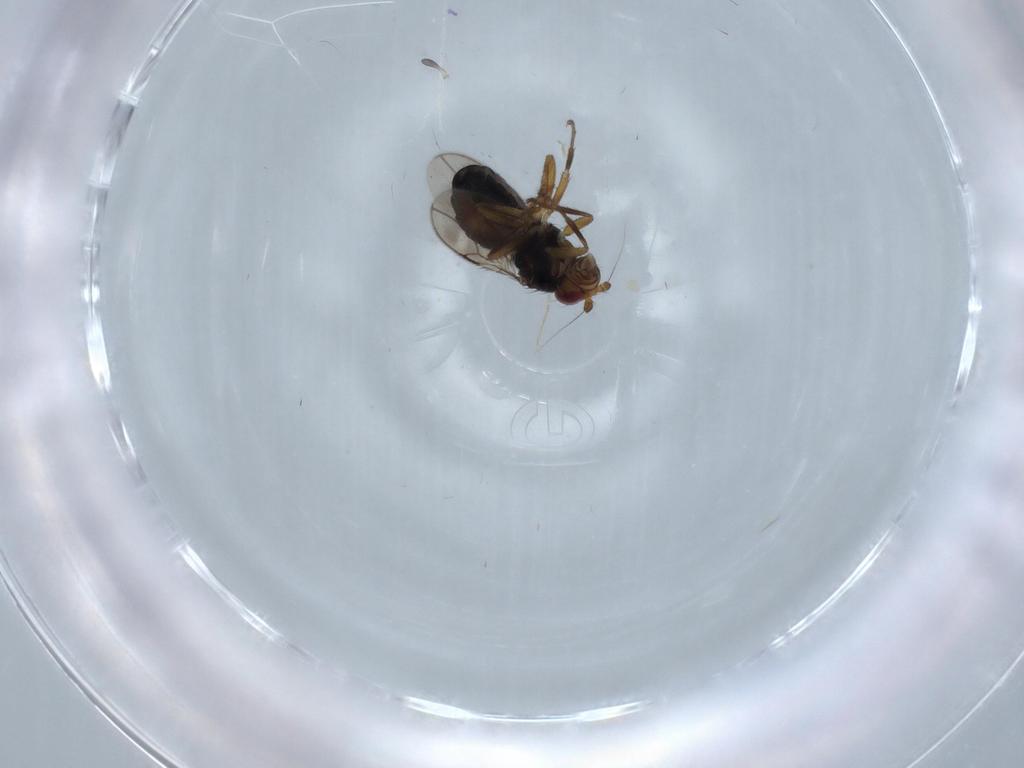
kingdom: Animalia
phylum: Arthropoda
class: Insecta
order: Diptera
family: Sphaeroceridae
